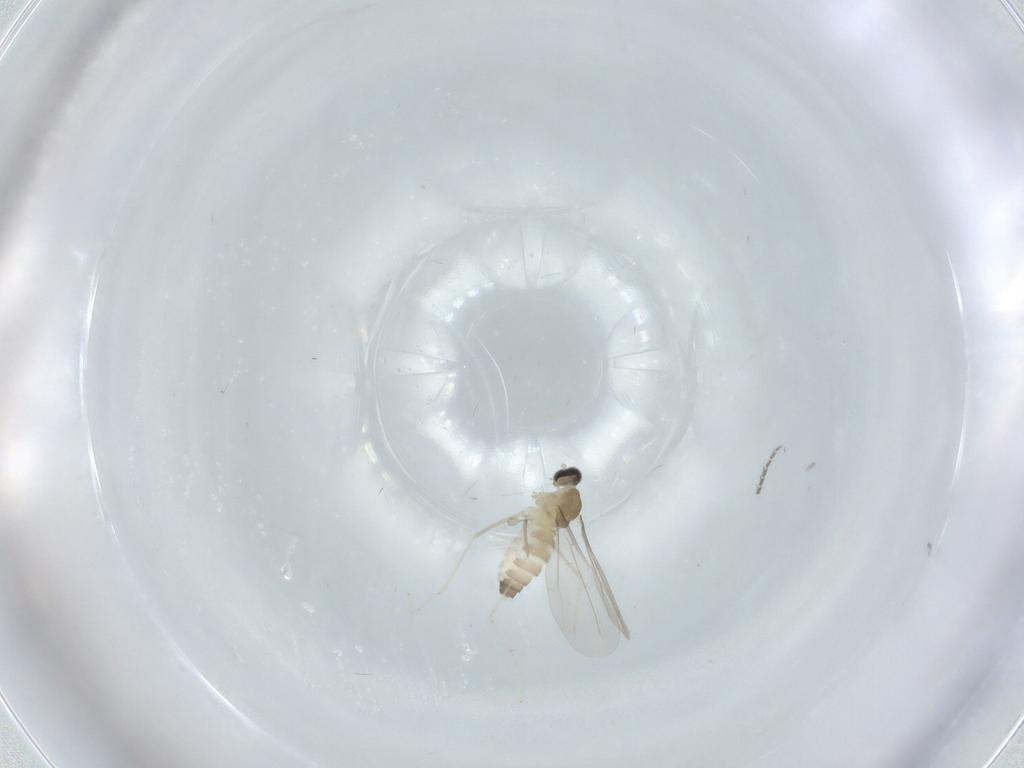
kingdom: Animalia
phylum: Arthropoda
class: Insecta
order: Diptera
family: Cecidomyiidae
